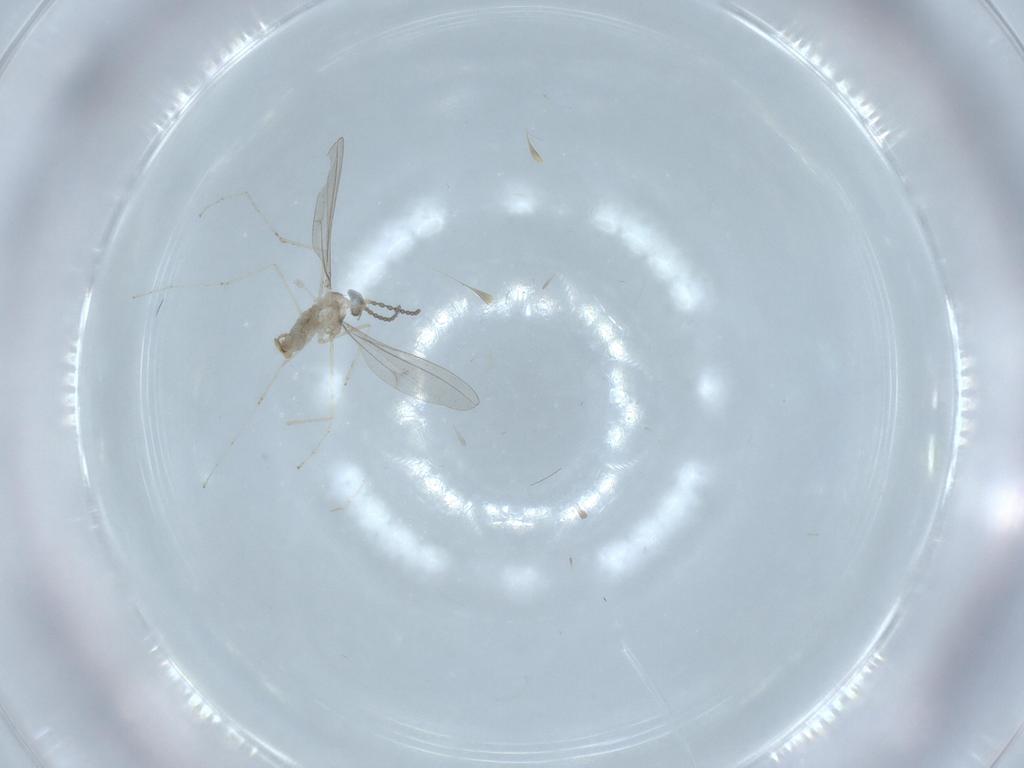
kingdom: Animalia
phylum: Arthropoda
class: Insecta
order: Diptera
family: Cecidomyiidae
